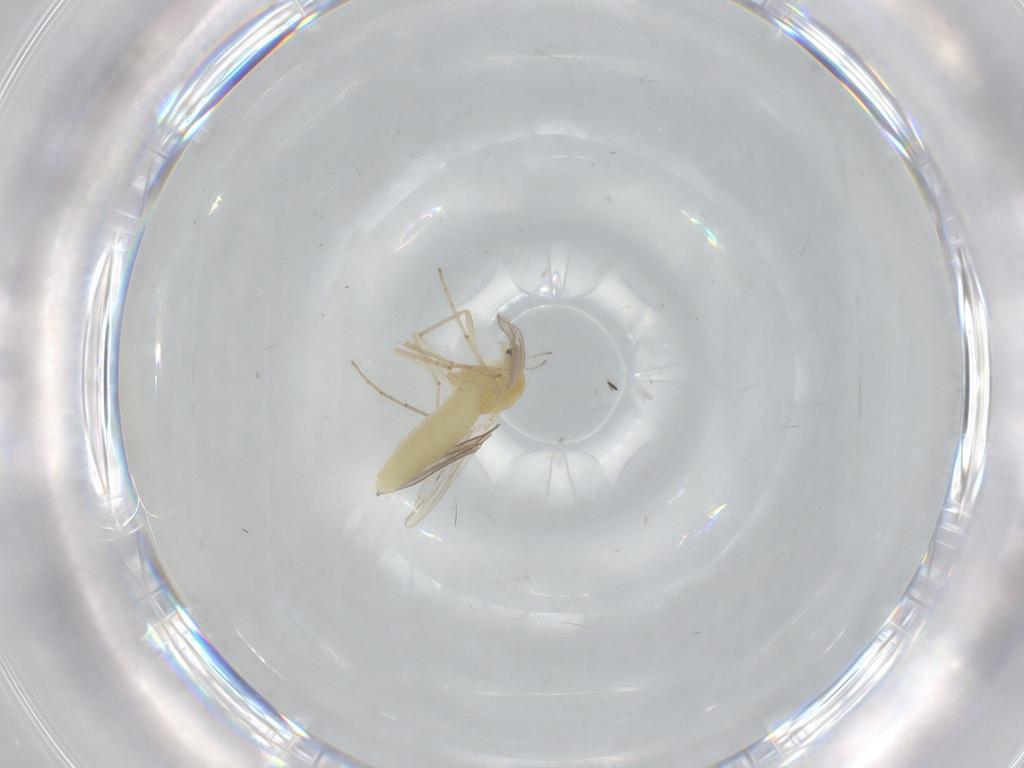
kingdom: Animalia
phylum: Arthropoda
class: Insecta
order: Diptera
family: Chironomidae
